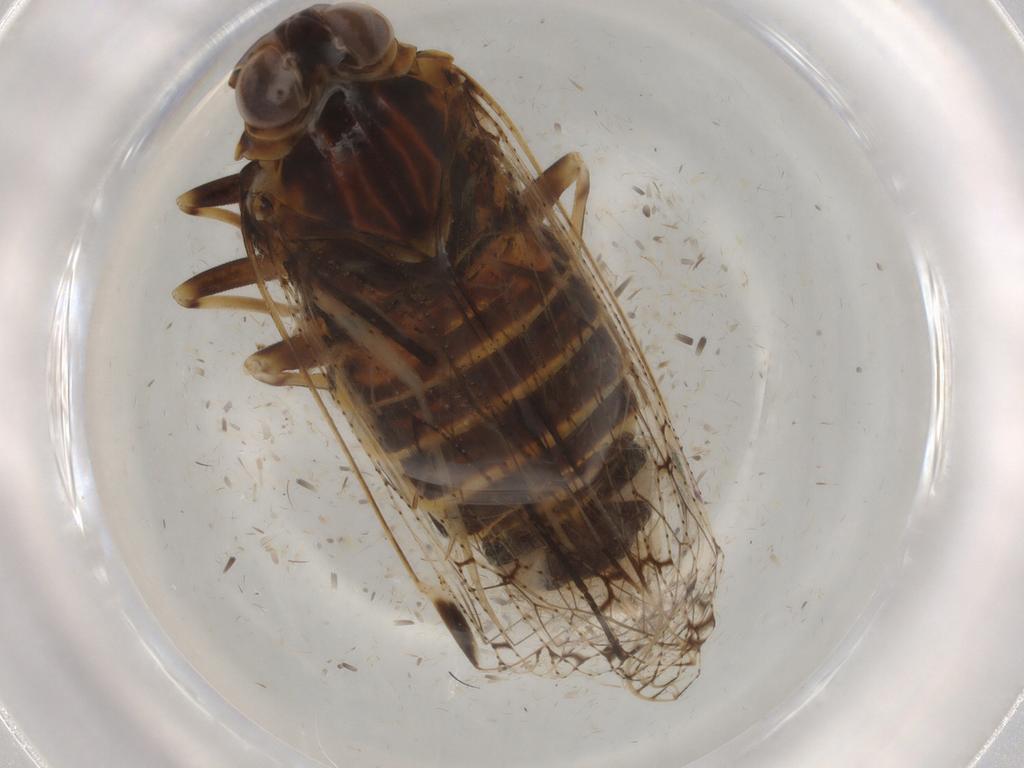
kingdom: Animalia
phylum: Arthropoda
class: Insecta
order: Hemiptera
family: Cixiidae
